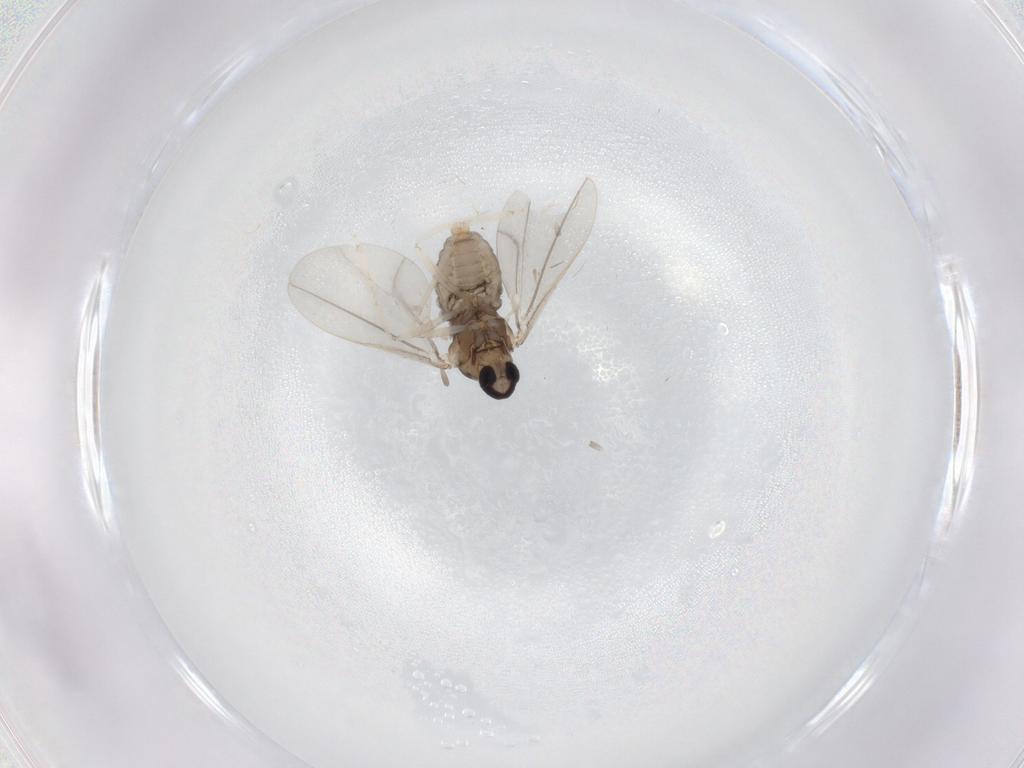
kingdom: Animalia
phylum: Arthropoda
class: Insecta
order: Diptera
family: Cecidomyiidae
